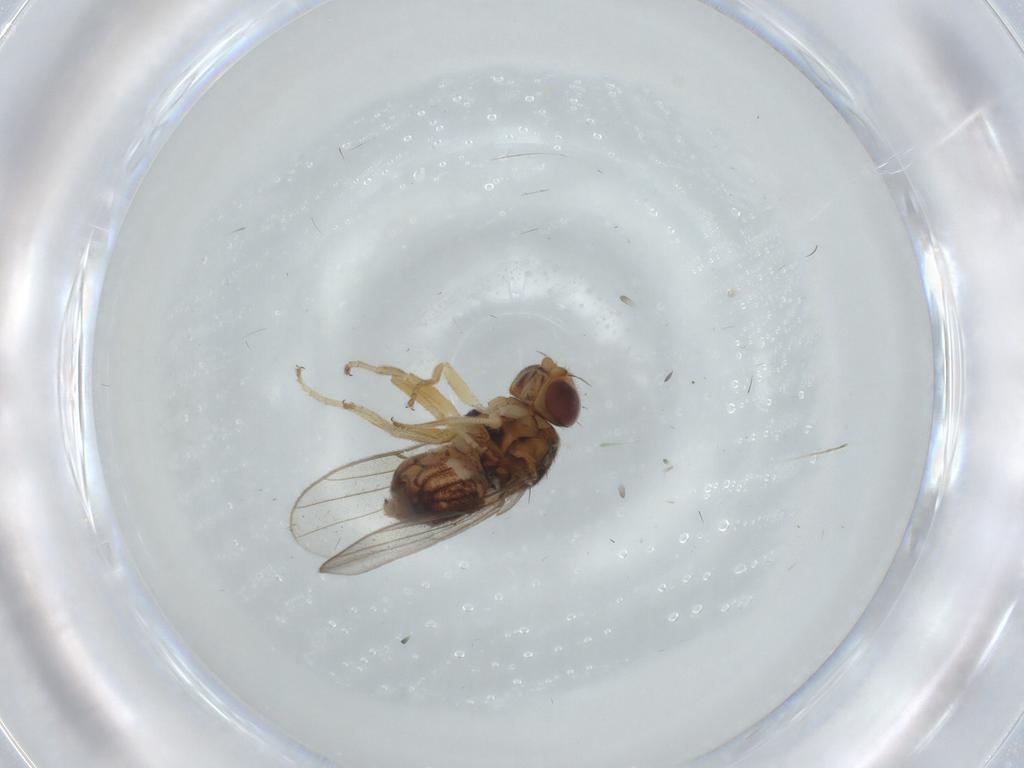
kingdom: Animalia
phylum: Arthropoda
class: Insecta
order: Diptera
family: Chloropidae
